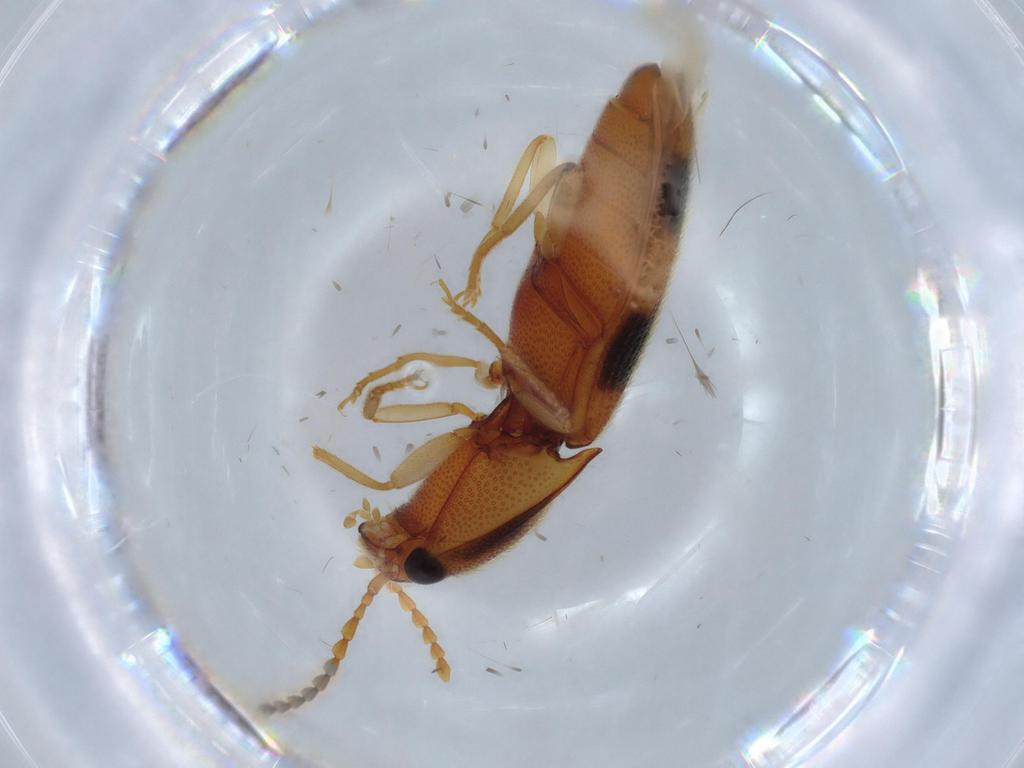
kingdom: Animalia
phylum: Arthropoda
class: Insecta
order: Coleoptera
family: Elateridae
